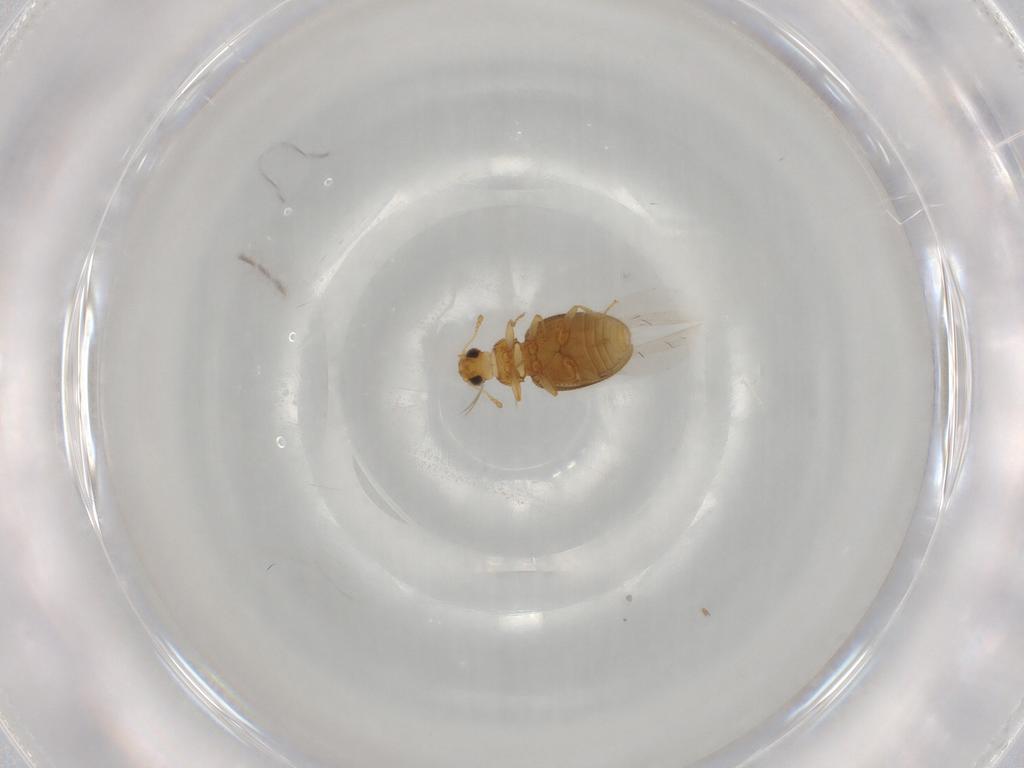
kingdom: Animalia
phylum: Arthropoda
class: Insecta
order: Coleoptera
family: Latridiidae
